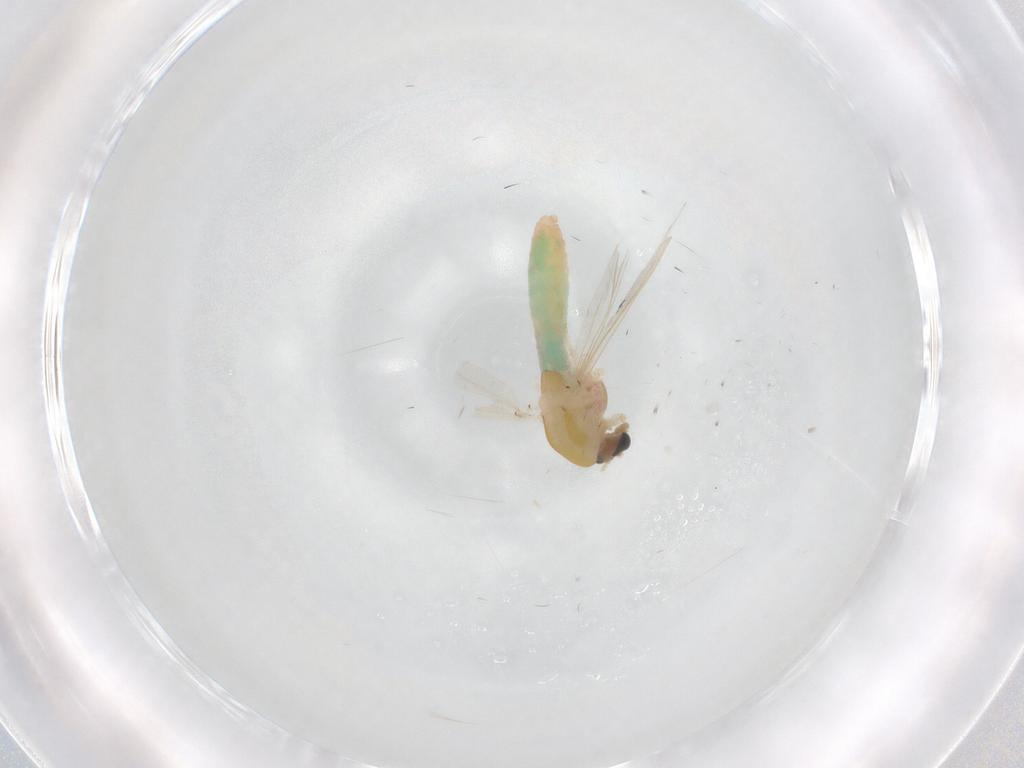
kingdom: Animalia
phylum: Arthropoda
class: Insecta
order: Diptera
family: Chironomidae
